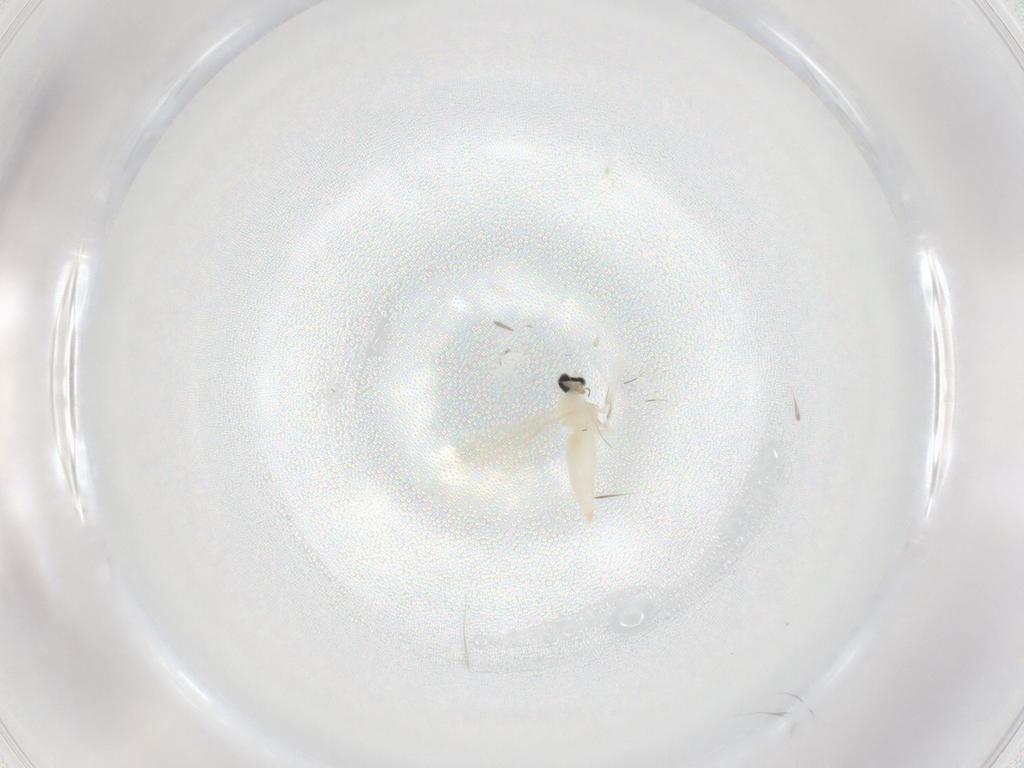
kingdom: Animalia
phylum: Arthropoda
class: Insecta
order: Diptera
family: Cecidomyiidae
